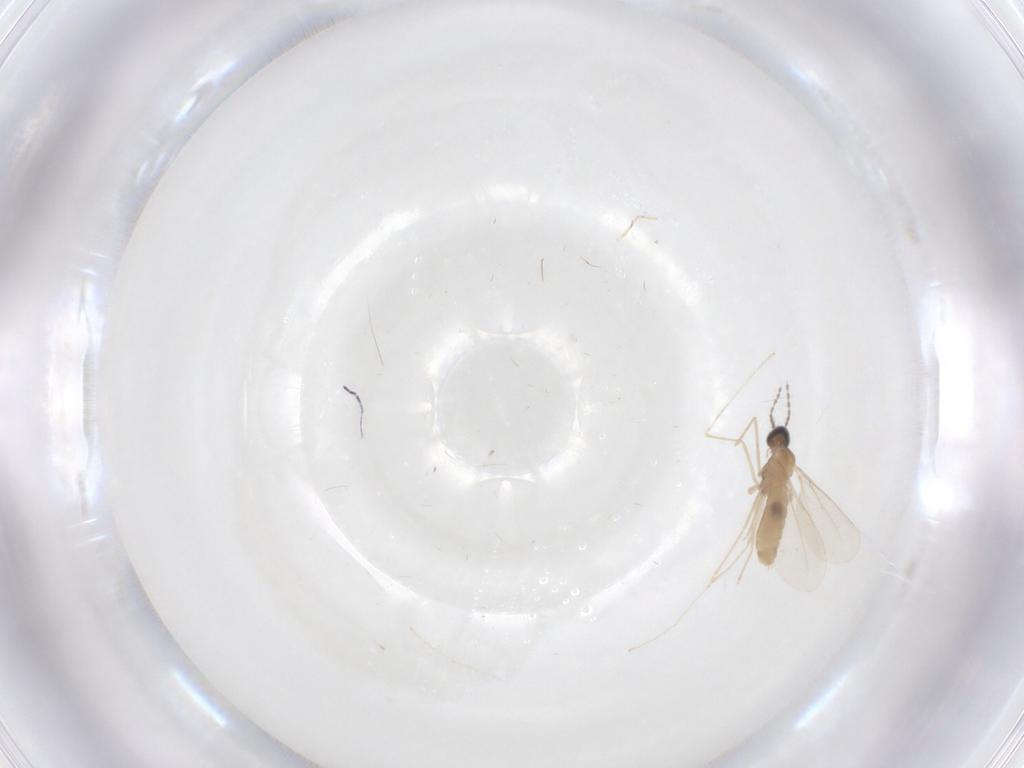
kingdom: Animalia
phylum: Arthropoda
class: Insecta
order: Diptera
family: Cecidomyiidae
